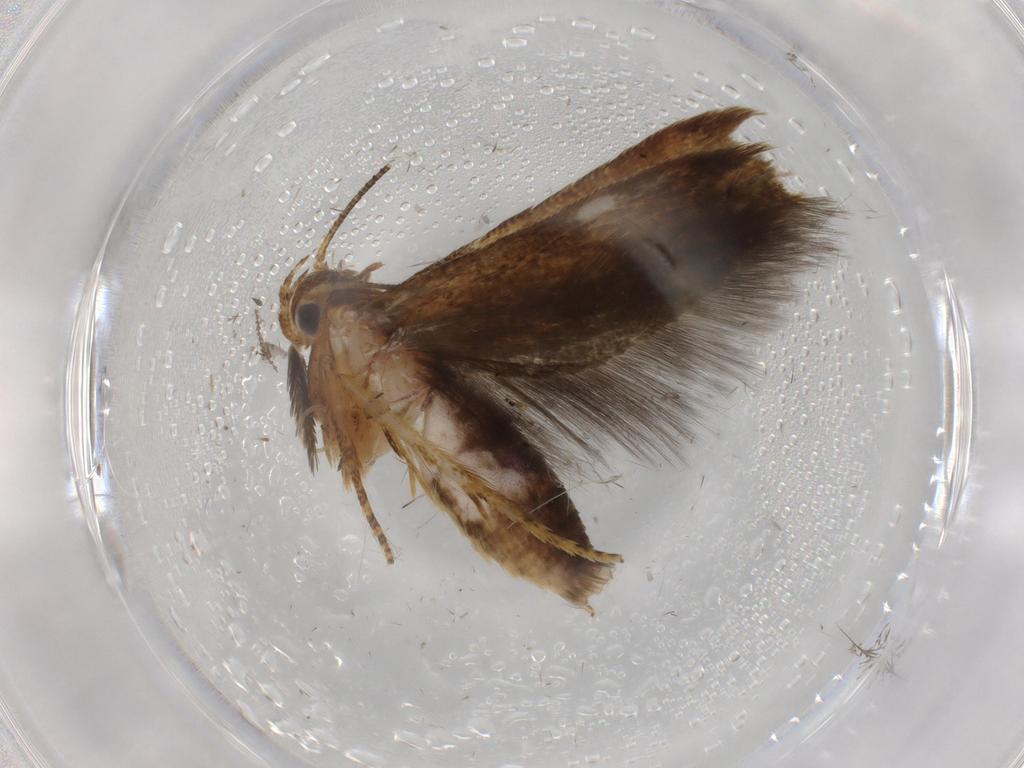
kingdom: Animalia
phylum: Arthropoda
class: Insecta
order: Lepidoptera
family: Blastobasidae
